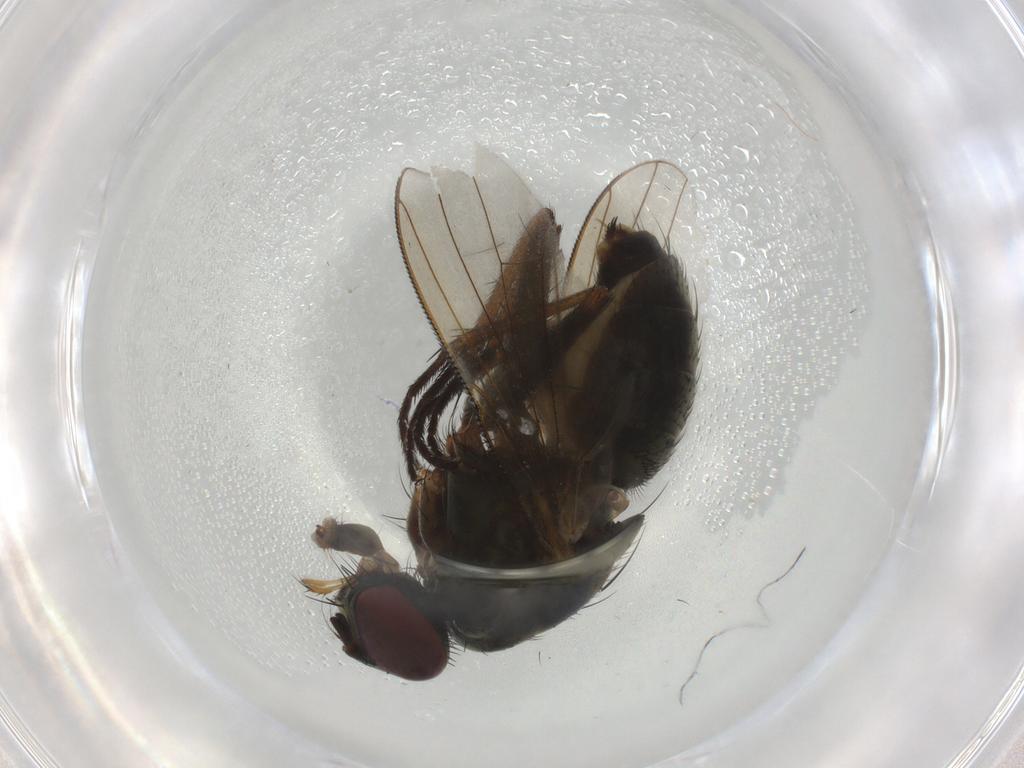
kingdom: Animalia
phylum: Arthropoda
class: Insecta
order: Diptera
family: Muscidae
